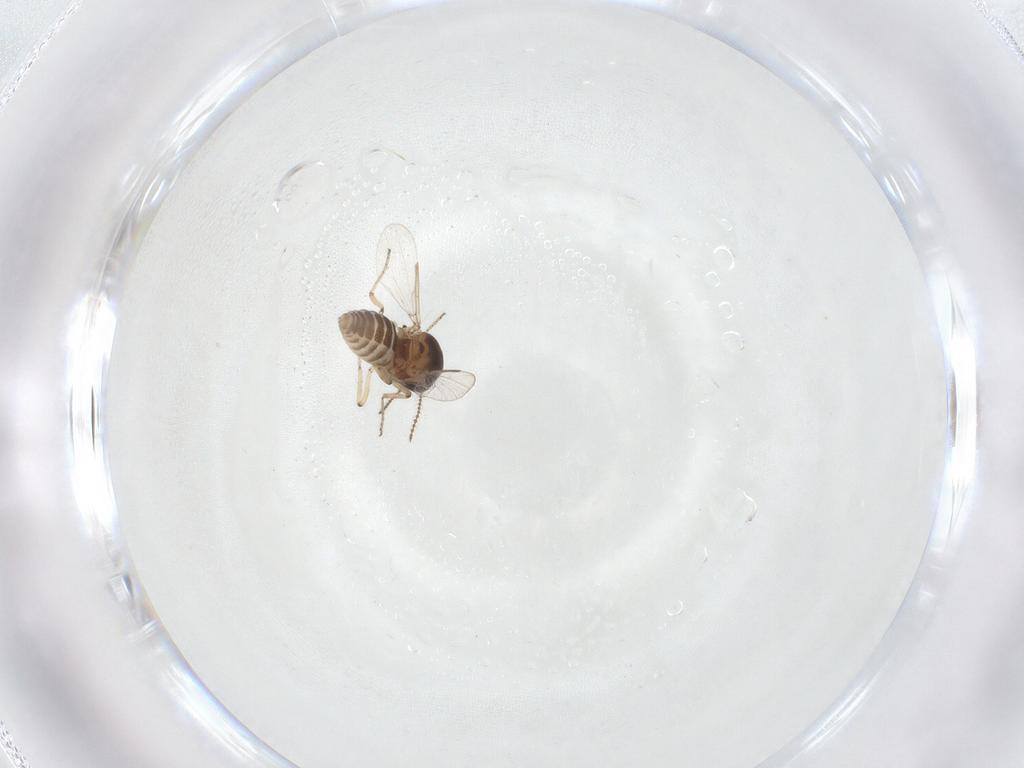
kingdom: Animalia
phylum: Arthropoda
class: Insecta
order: Diptera
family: Ceratopogonidae
